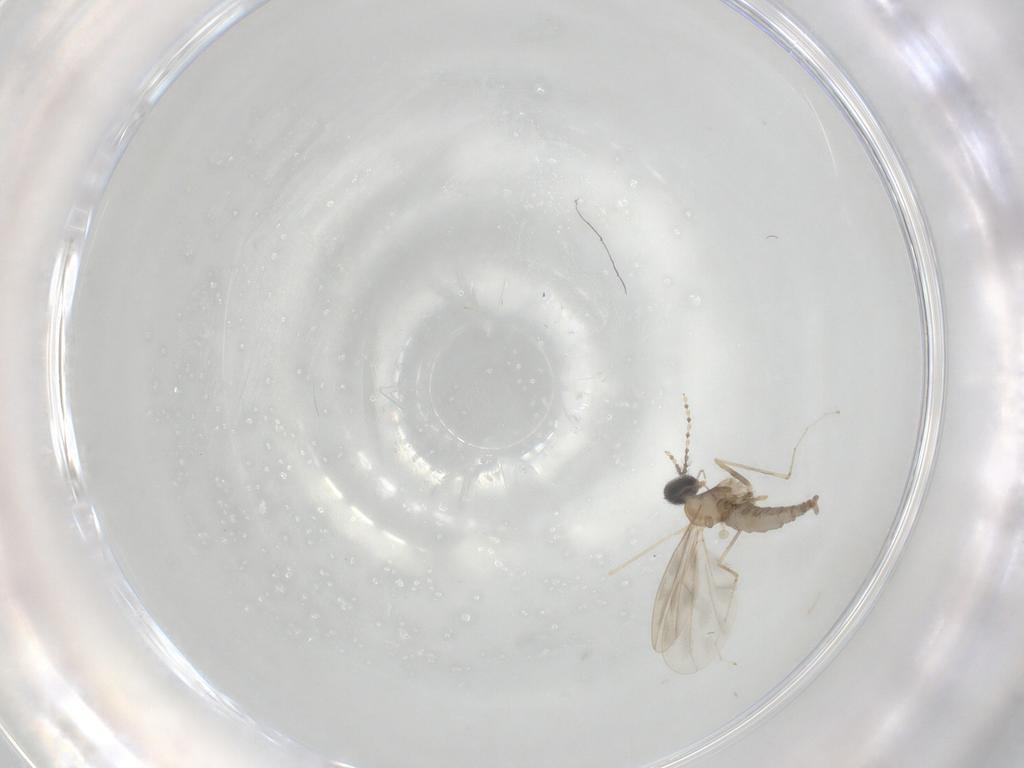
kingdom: Animalia
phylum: Arthropoda
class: Insecta
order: Diptera
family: Cecidomyiidae
